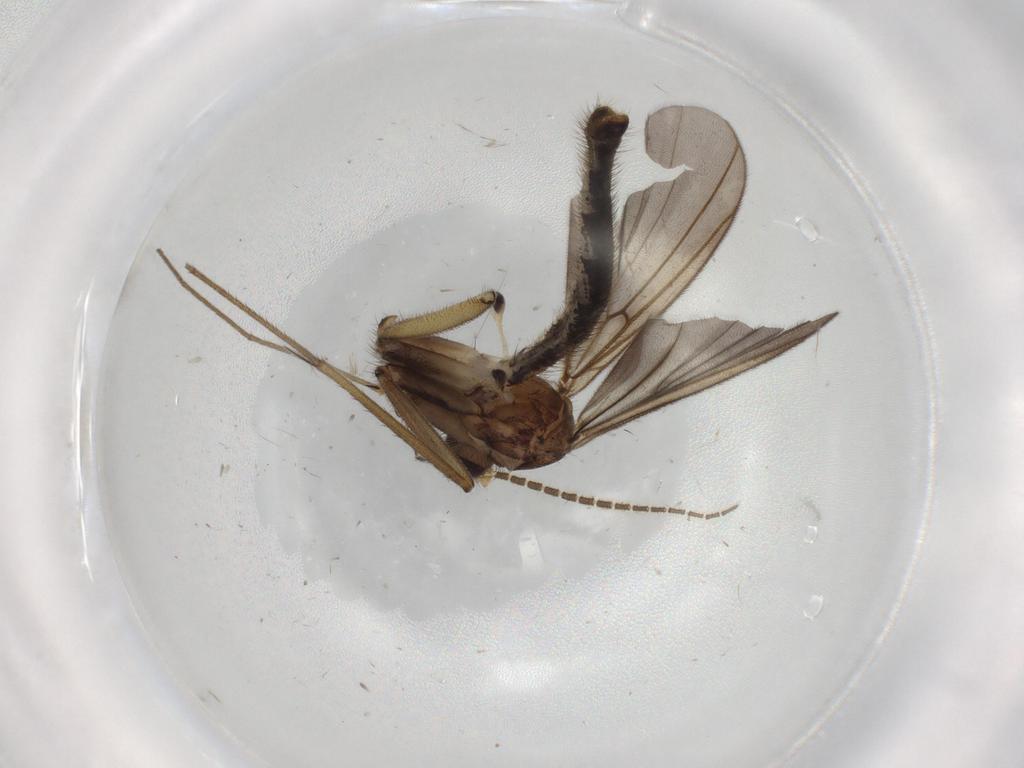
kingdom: Animalia
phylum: Arthropoda
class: Insecta
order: Diptera
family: Mycetophilidae
